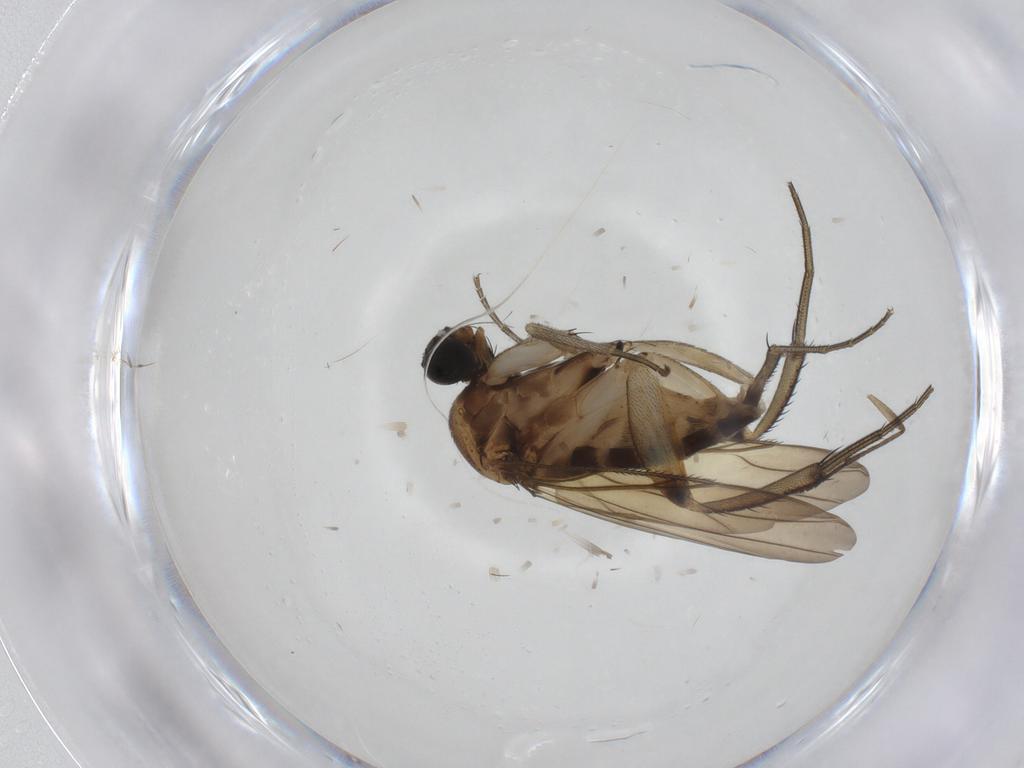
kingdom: Animalia
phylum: Arthropoda
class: Insecta
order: Diptera
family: Phoridae
